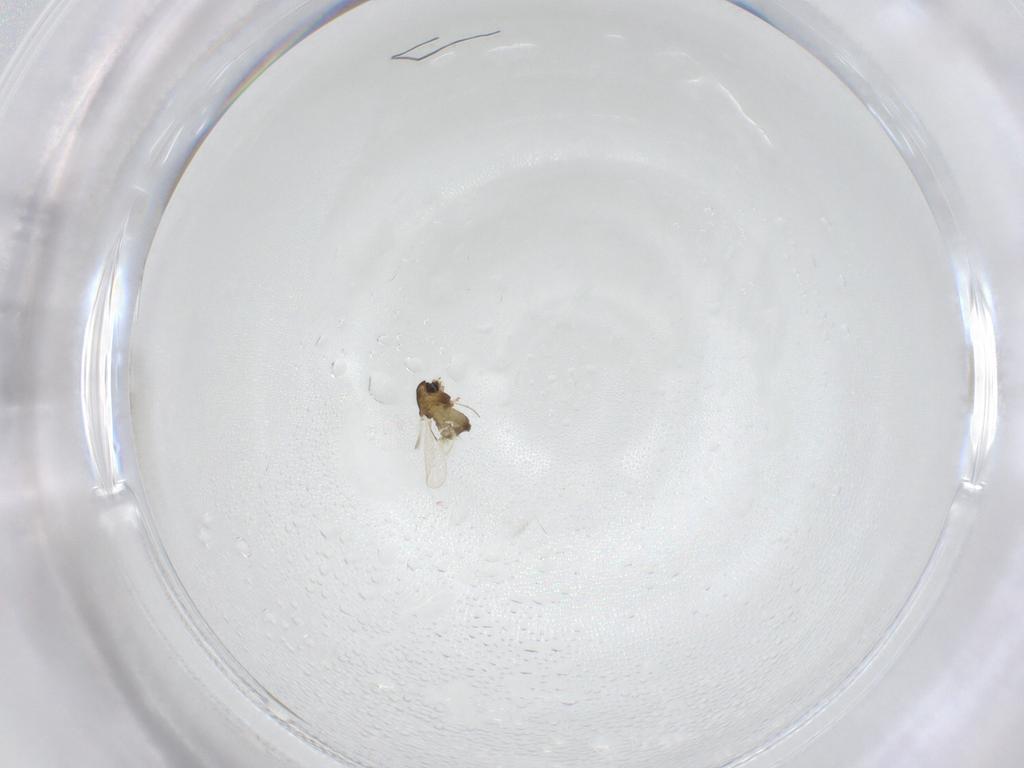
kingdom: Animalia
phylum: Arthropoda
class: Insecta
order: Diptera
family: Chironomidae
